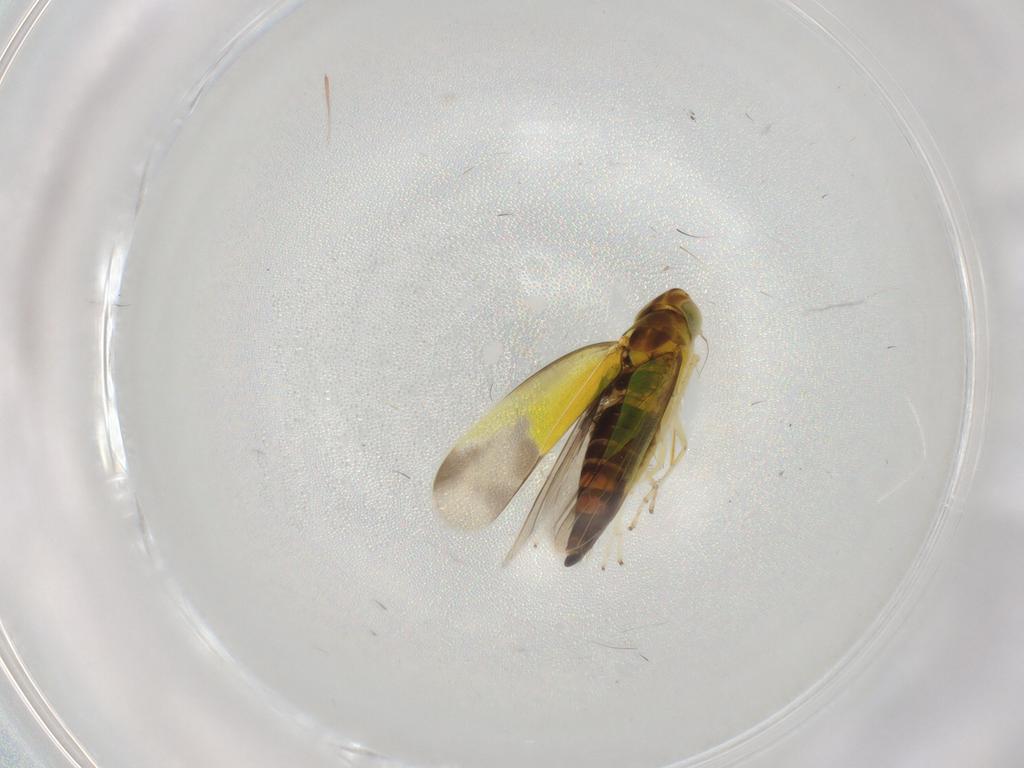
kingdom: Animalia
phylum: Arthropoda
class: Insecta
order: Hemiptera
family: Cicadellidae
